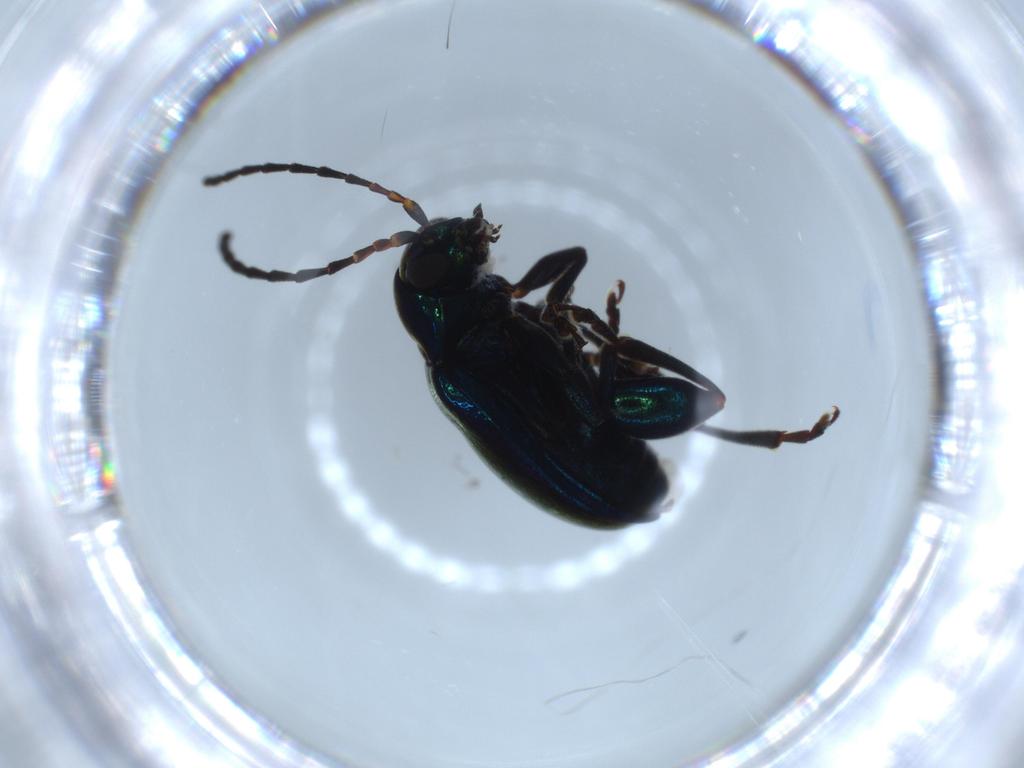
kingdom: Animalia
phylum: Arthropoda
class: Insecta
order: Coleoptera
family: Chrysomelidae
